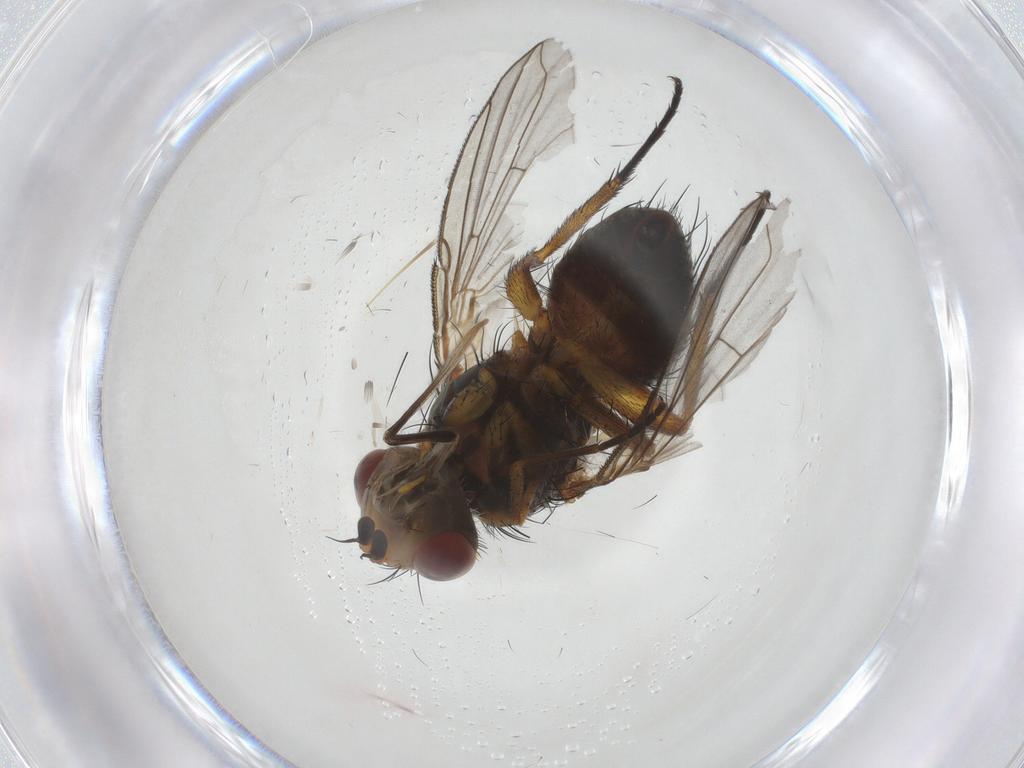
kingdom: Animalia
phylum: Arthropoda
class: Insecta
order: Diptera
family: Tachinidae
